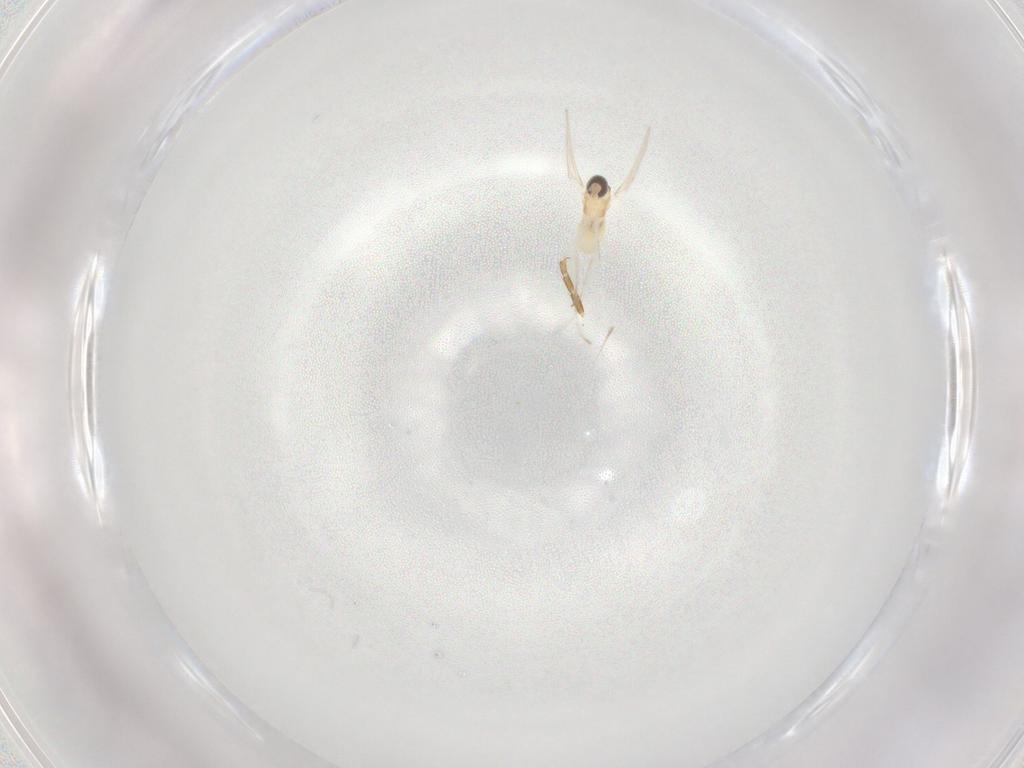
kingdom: Animalia
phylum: Arthropoda
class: Insecta
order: Diptera
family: Cecidomyiidae
